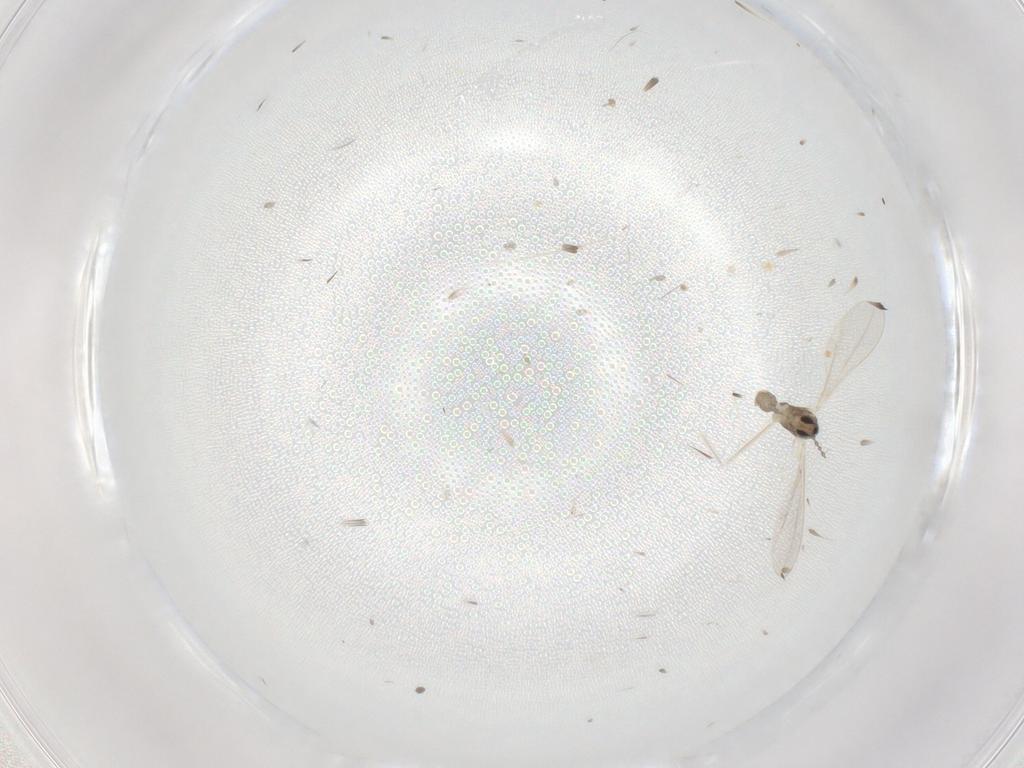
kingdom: Animalia
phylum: Arthropoda
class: Insecta
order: Diptera
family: Cecidomyiidae
